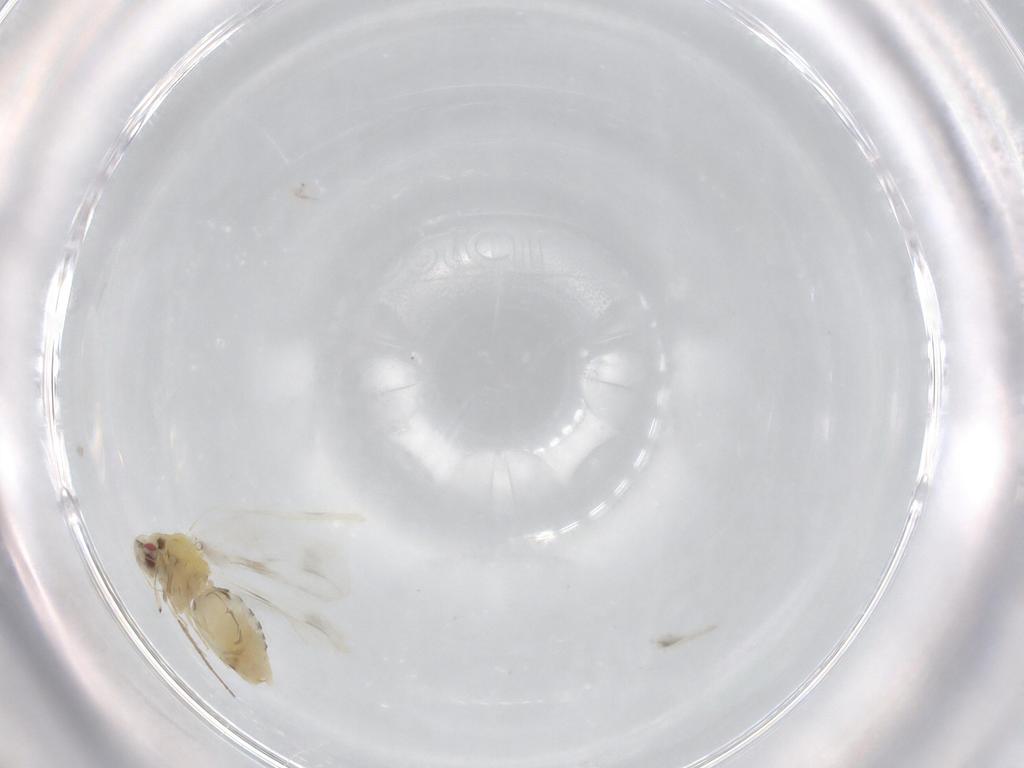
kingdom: Animalia
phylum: Arthropoda
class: Insecta
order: Hemiptera
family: Aleyrodidae
